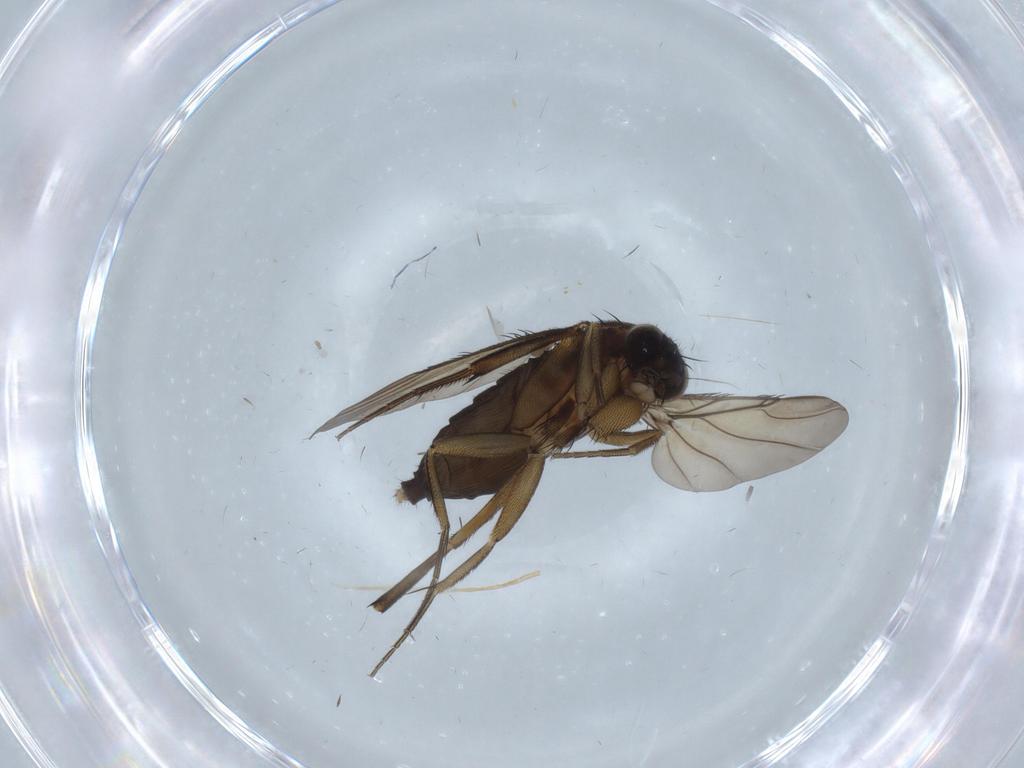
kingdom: Animalia
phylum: Arthropoda
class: Insecta
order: Diptera
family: Phoridae
